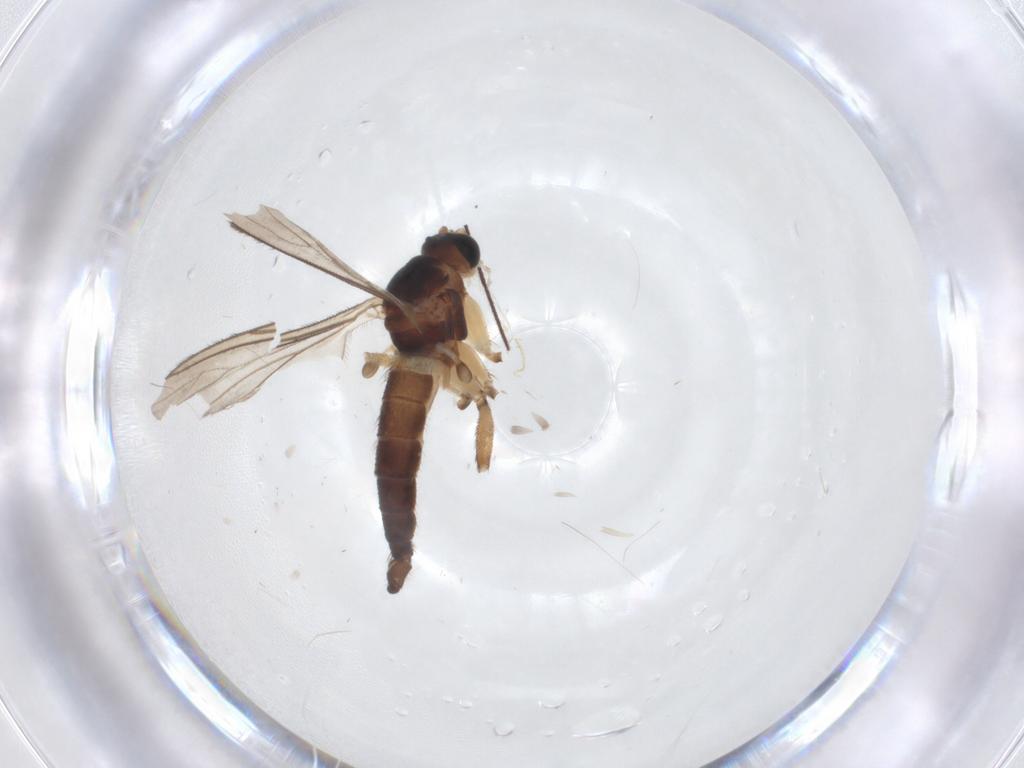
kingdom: Animalia
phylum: Arthropoda
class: Insecta
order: Diptera
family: Sciaridae
